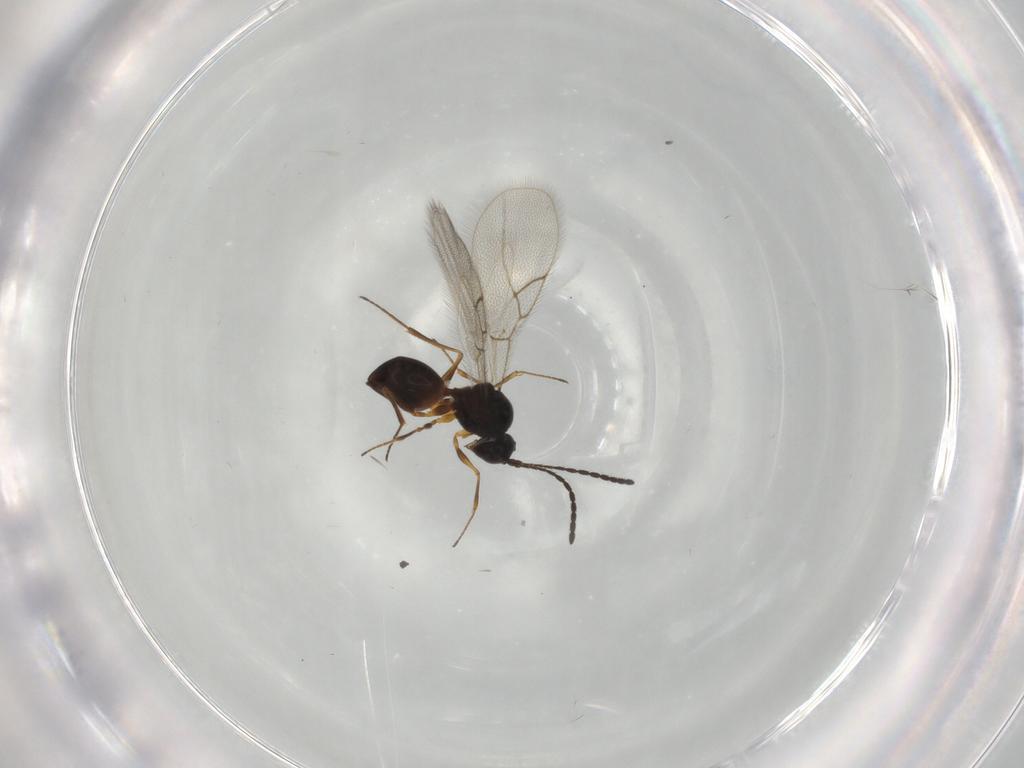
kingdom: Animalia
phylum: Arthropoda
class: Insecta
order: Hymenoptera
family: Figitidae
